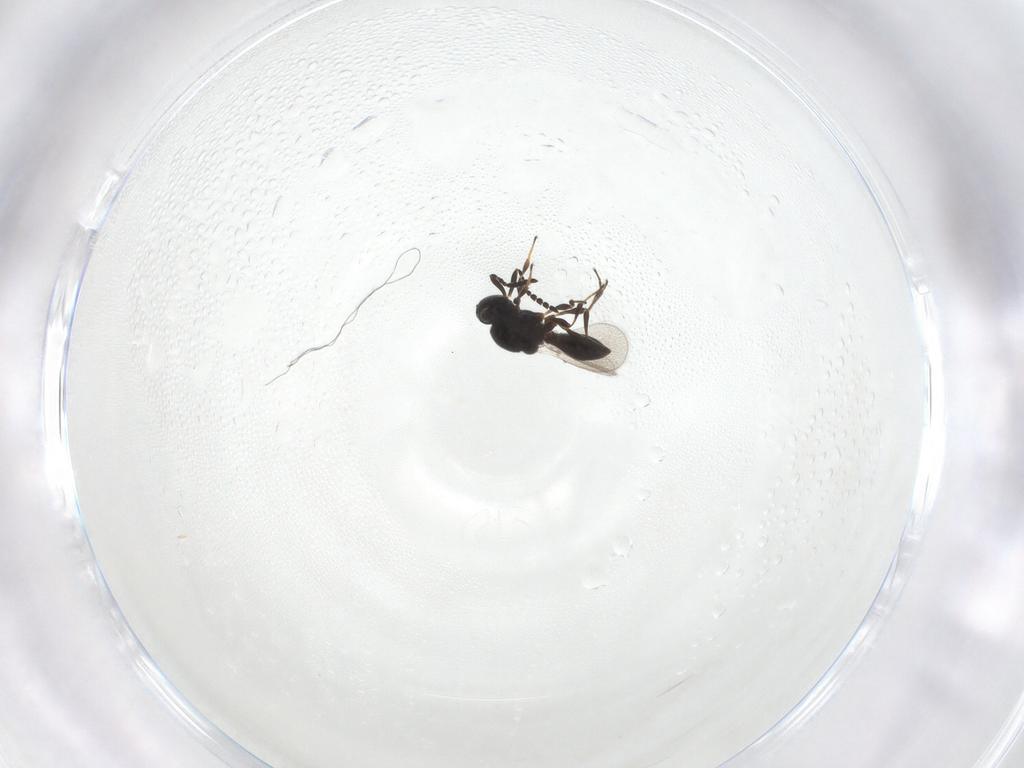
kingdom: Animalia
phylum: Arthropoda
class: Insecta
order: Hymenoptera
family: Platygastridae
